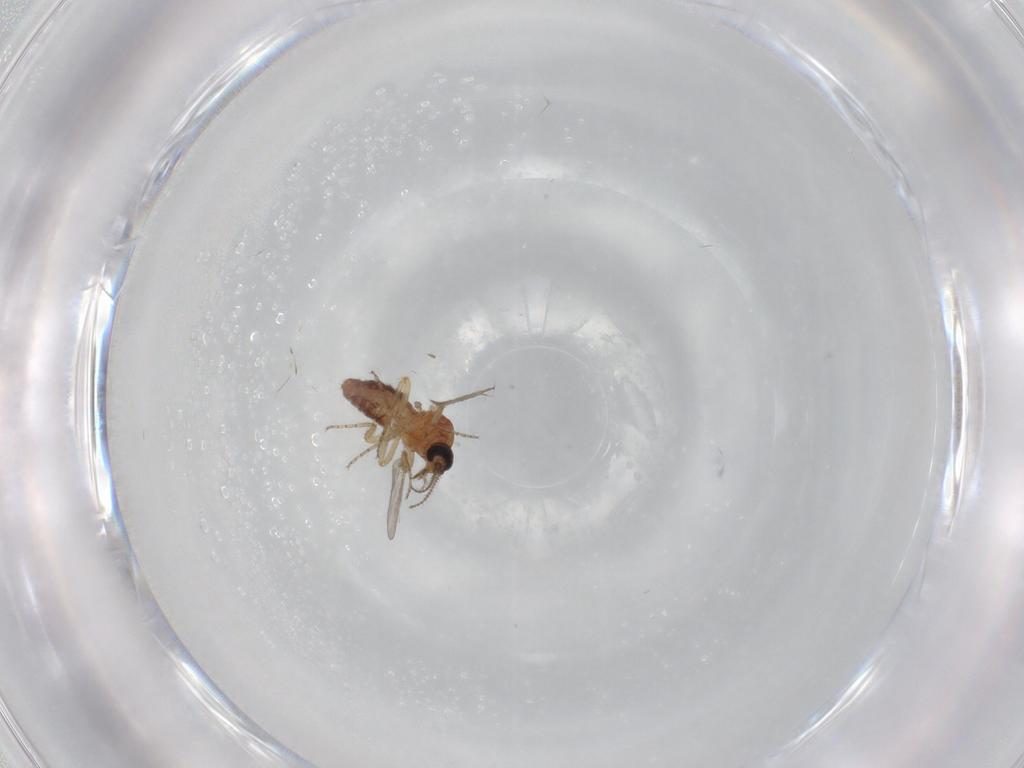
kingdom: Animalia
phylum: Arthropoda
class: Insecta
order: Diptera
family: Ceratopogonidae
